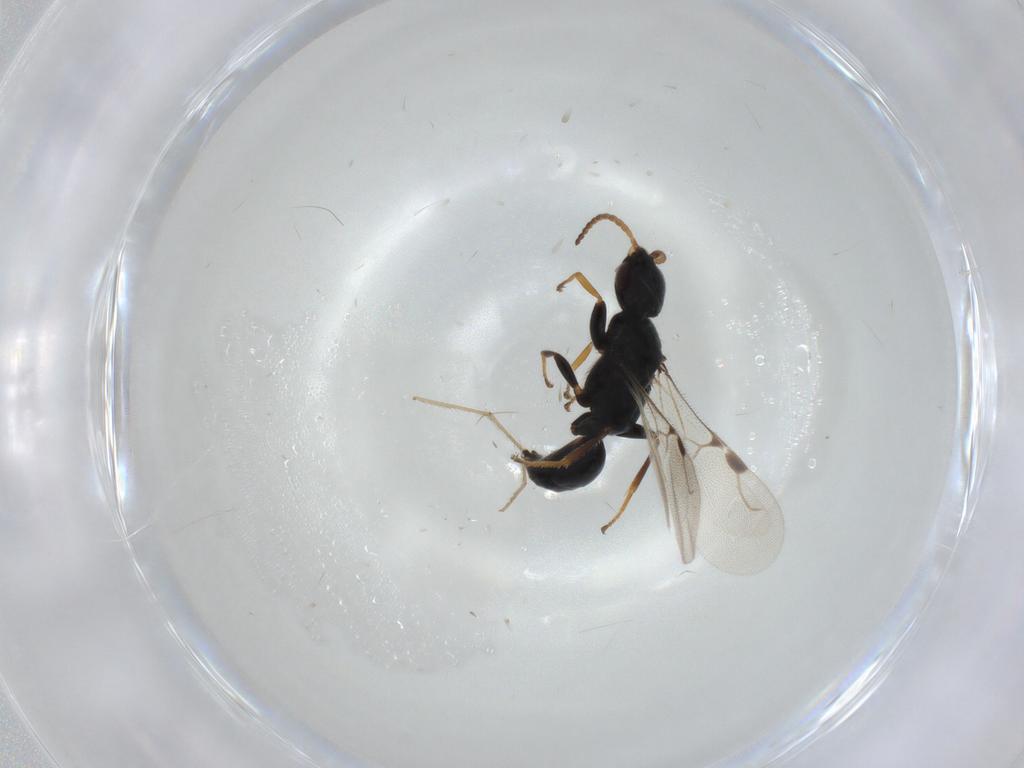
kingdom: Animalia
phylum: Arthropoda
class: Insecta
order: Hymenoptera
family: Bethylidae
